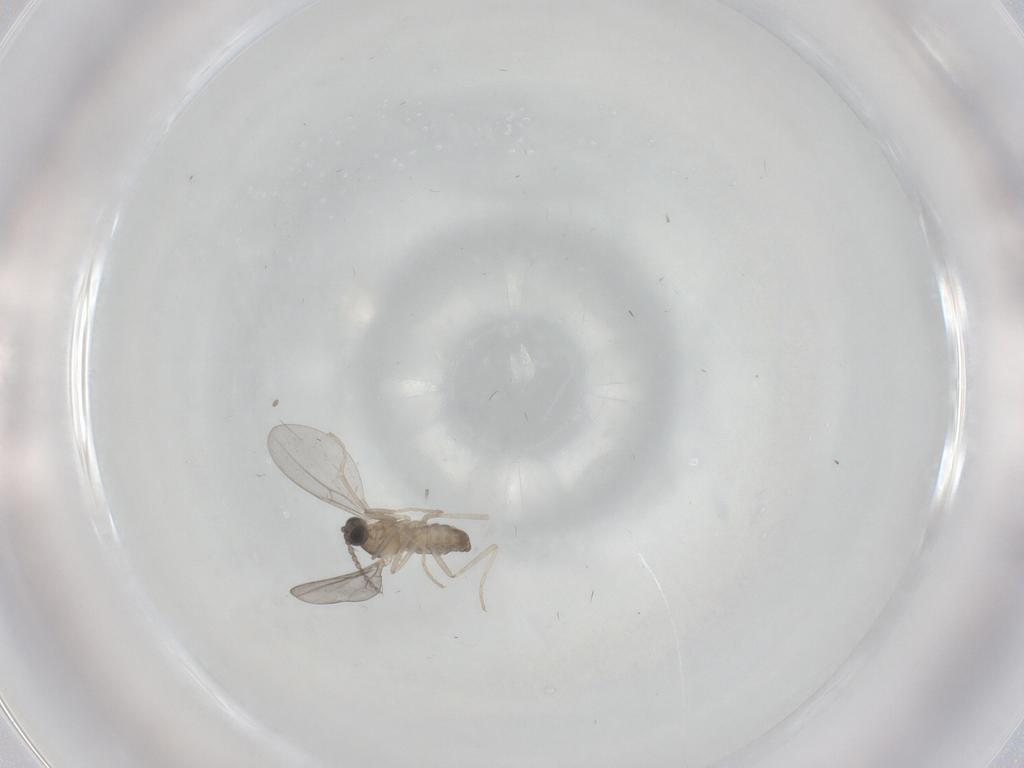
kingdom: Animalia
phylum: Arthropoda
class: Insecta
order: Diptera
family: Cecidomyiidae
